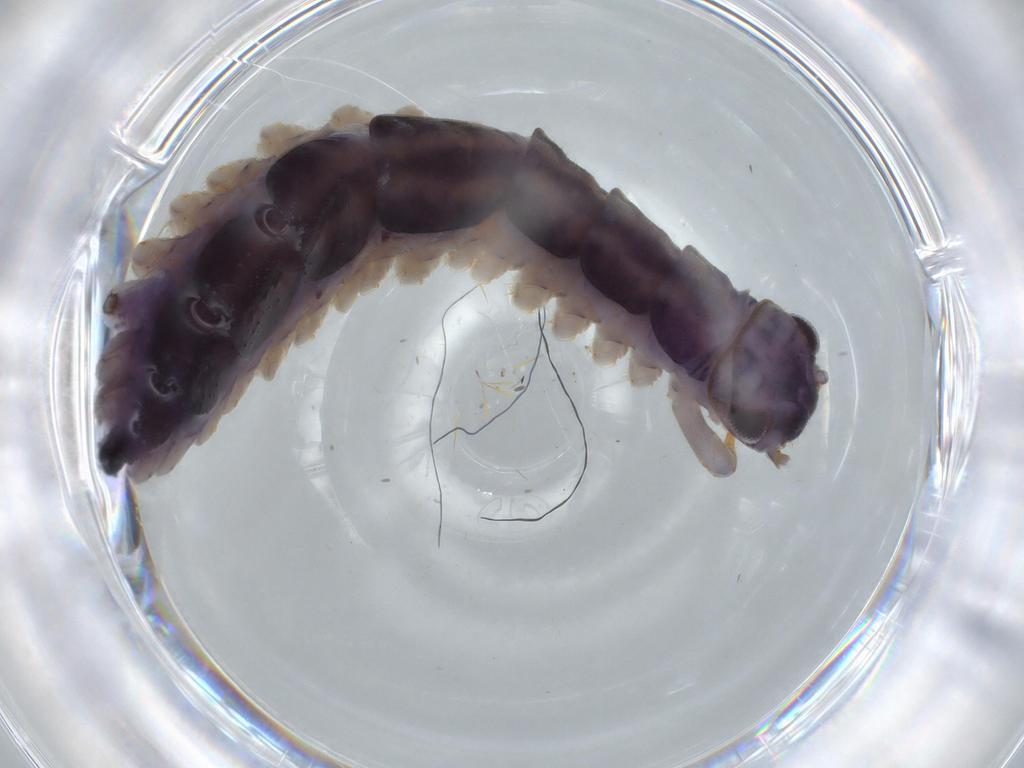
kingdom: Animalia
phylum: Arthropoda
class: Chilopoda
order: Scutigeromorpha
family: Scutigeridae
